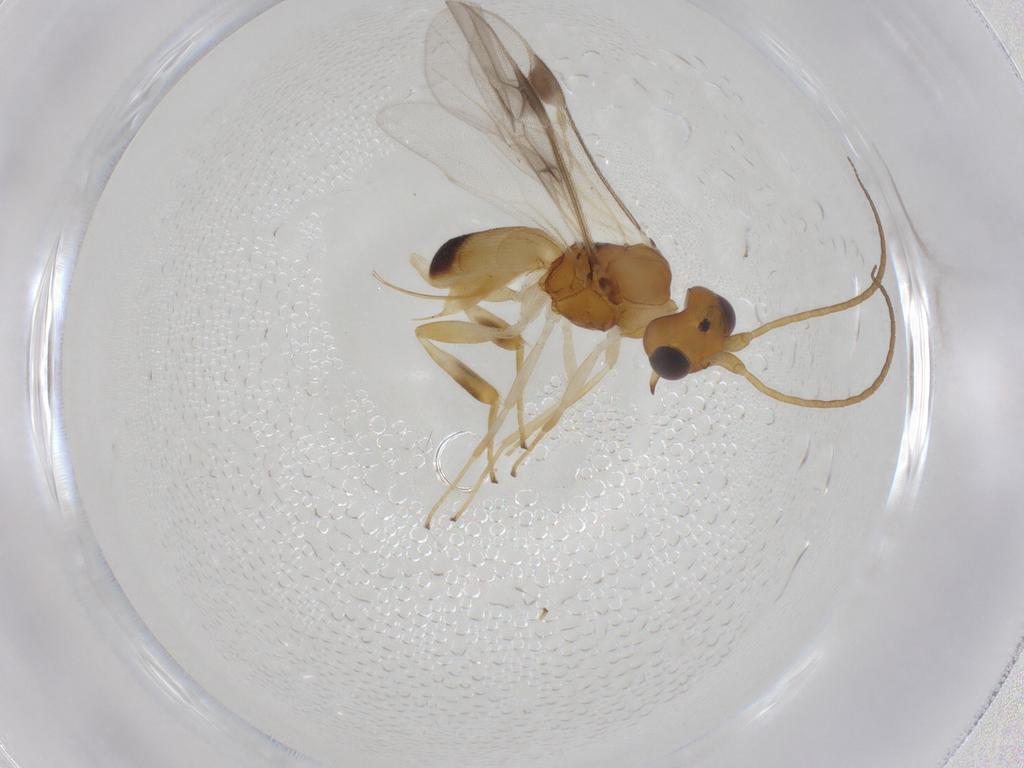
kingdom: Animalia
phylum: Arthropoda
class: Insecta
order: Hymenoptera
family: Braconidae
